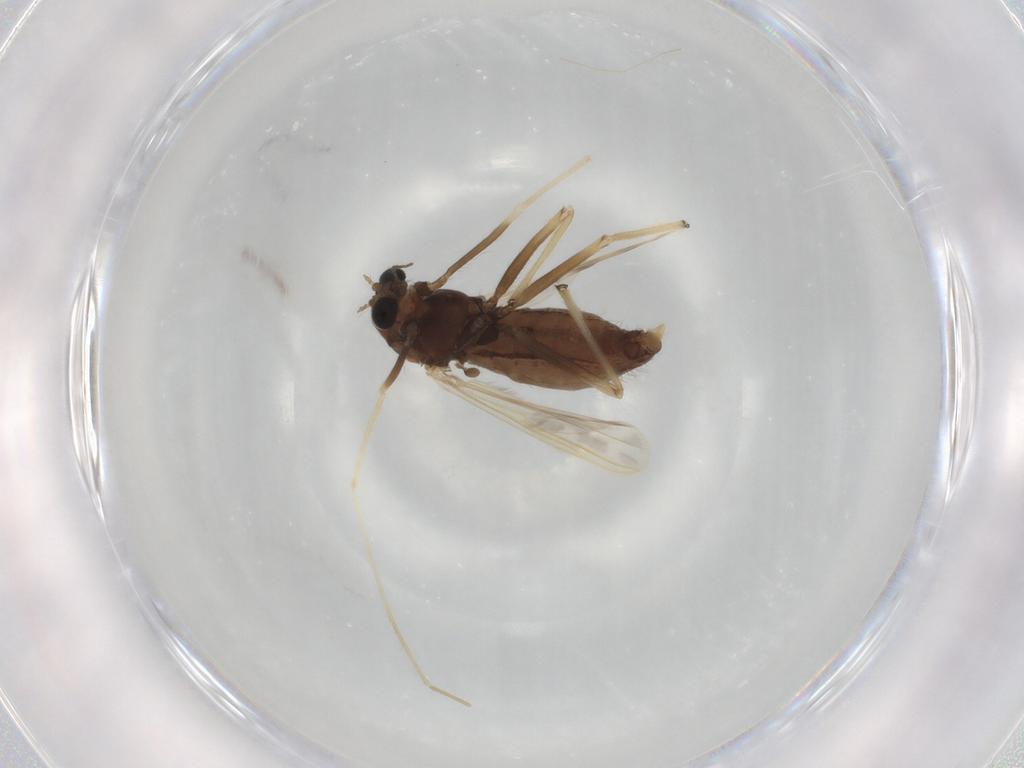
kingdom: Animalia
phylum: Arthropoda
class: Insecta
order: Diptera
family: Chironomidae
